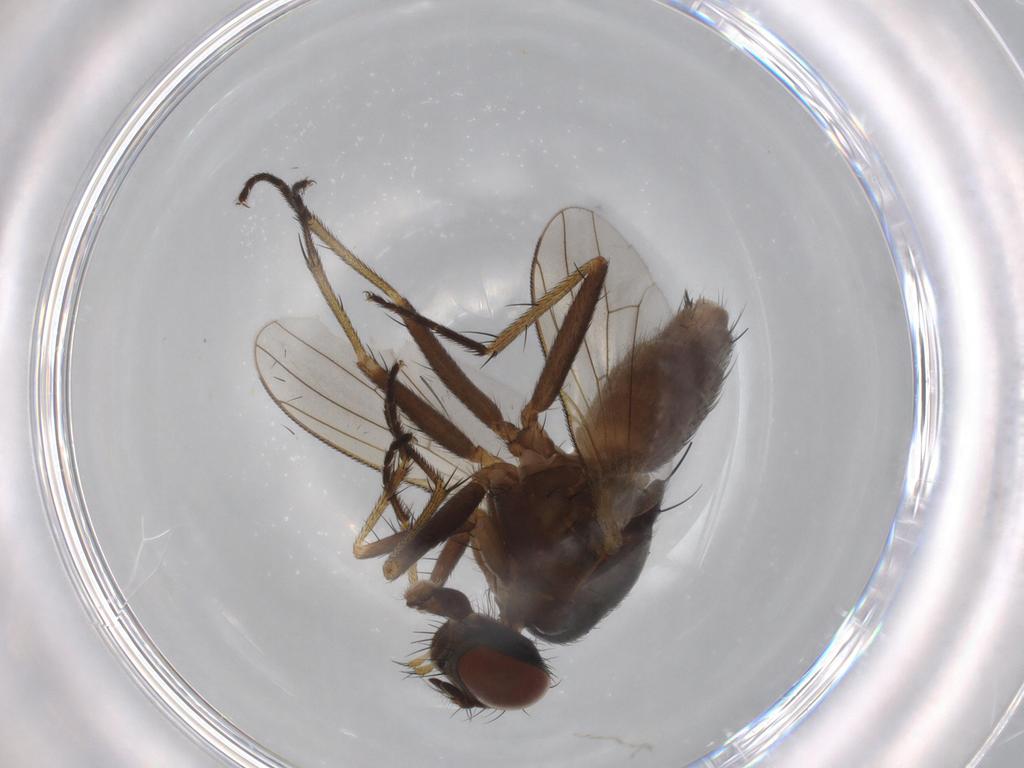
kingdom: Animalia
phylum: Arthropoda
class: Insecta
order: Diptera
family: Muscidae
